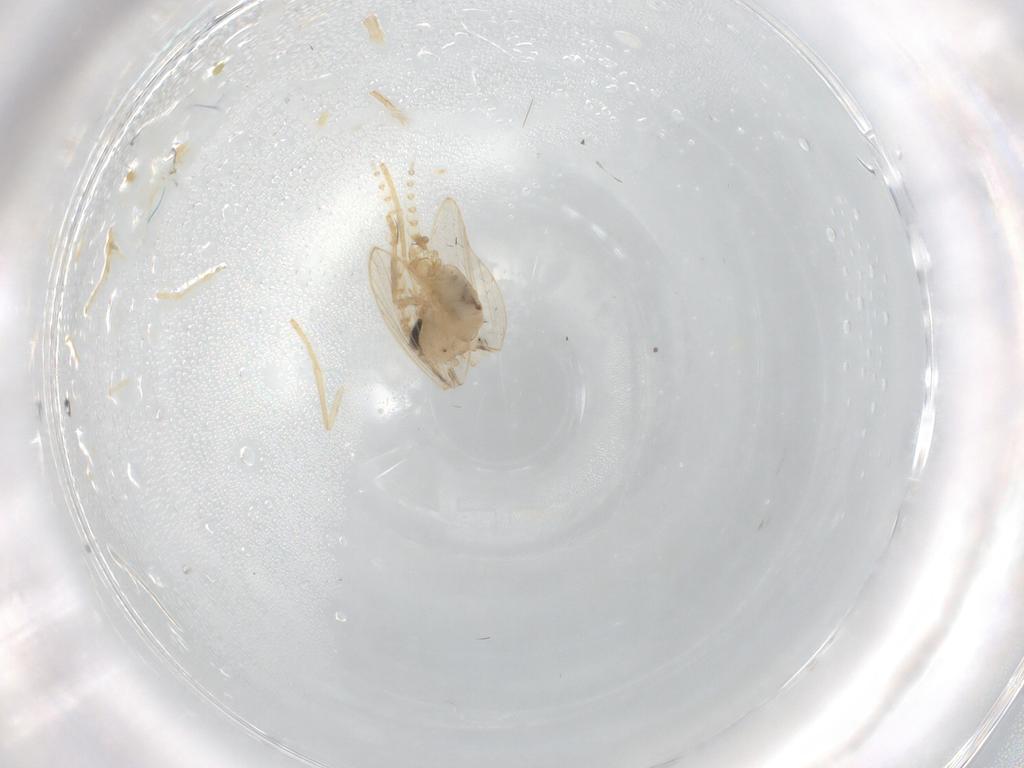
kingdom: Animalia
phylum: Arthropoda
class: Insecta
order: Diptera
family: Psychodidae
